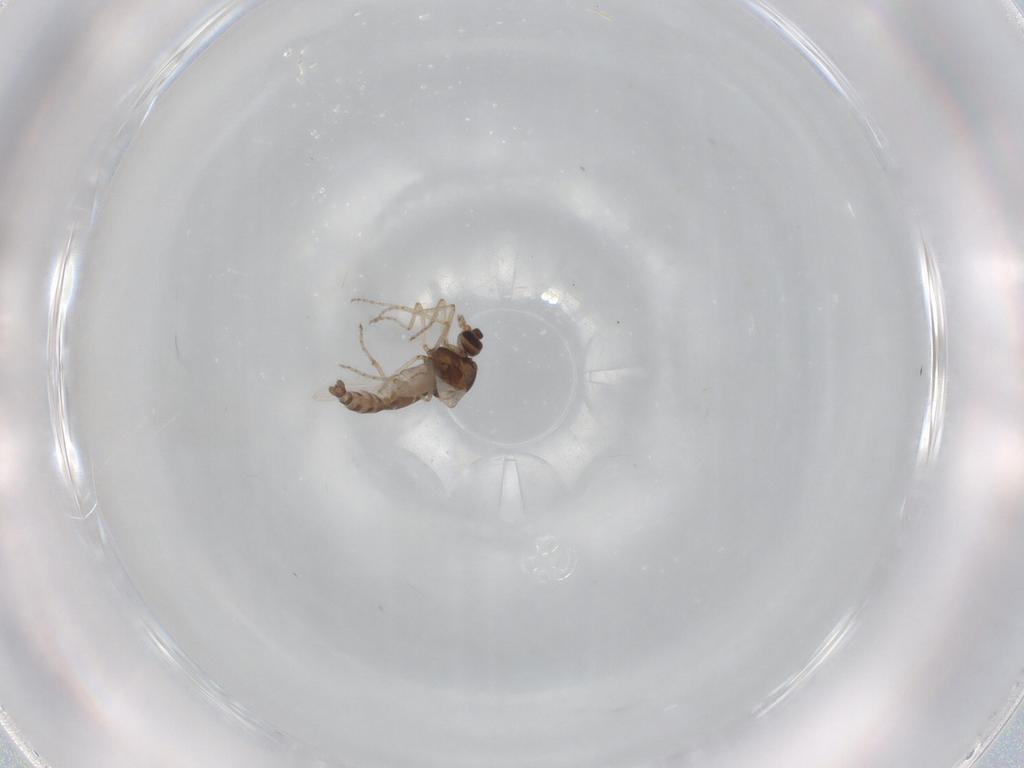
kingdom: Animalia
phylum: Arthropoda
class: Insecta
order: Diptera
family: Ceratopogonidae
